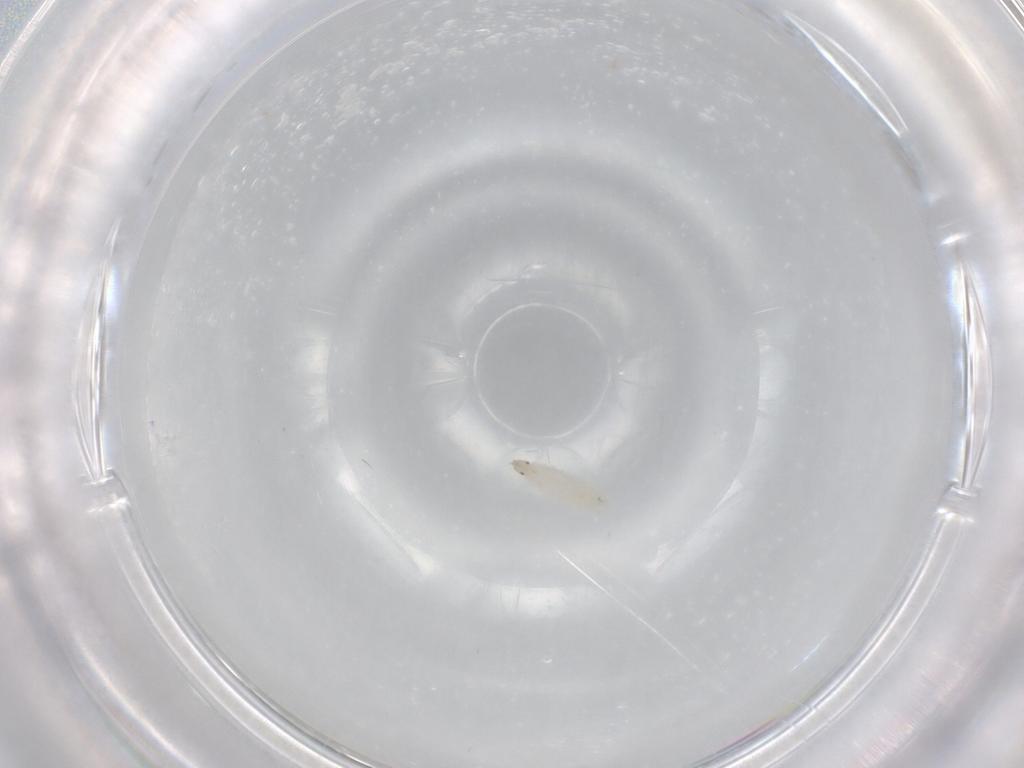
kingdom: Animalia
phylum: Arthropoda
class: Insecta
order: Diptera
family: Psychodidae
